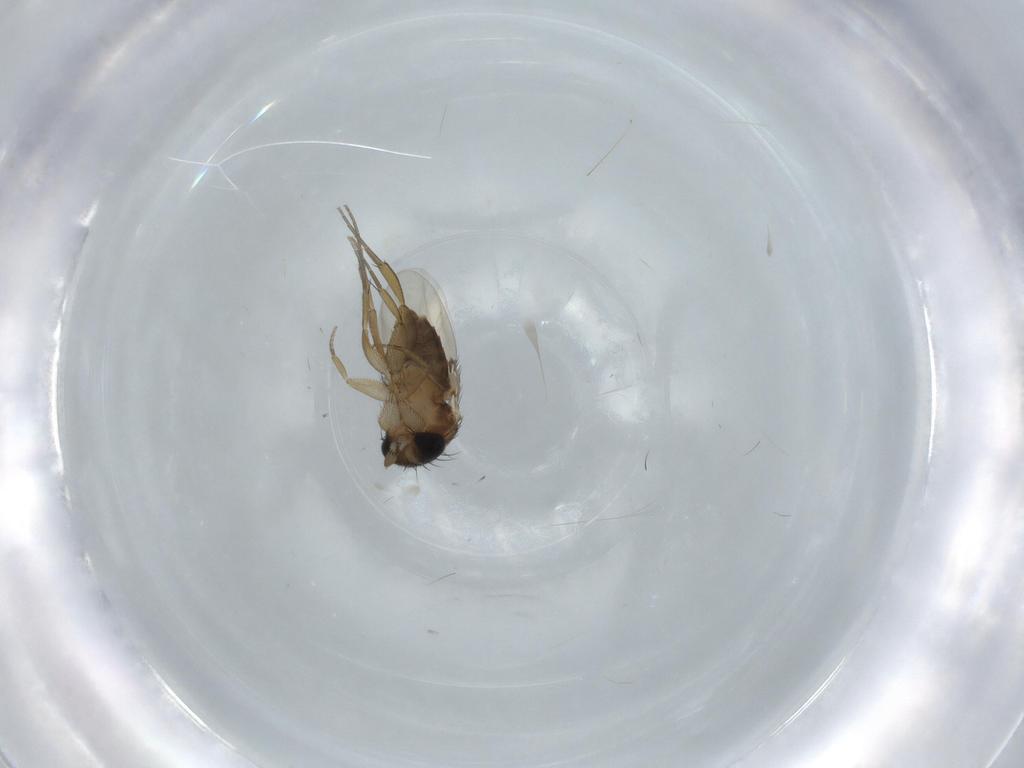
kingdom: Animalia
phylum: Arthropoda
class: Insecta
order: Diptera
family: Phoridae
